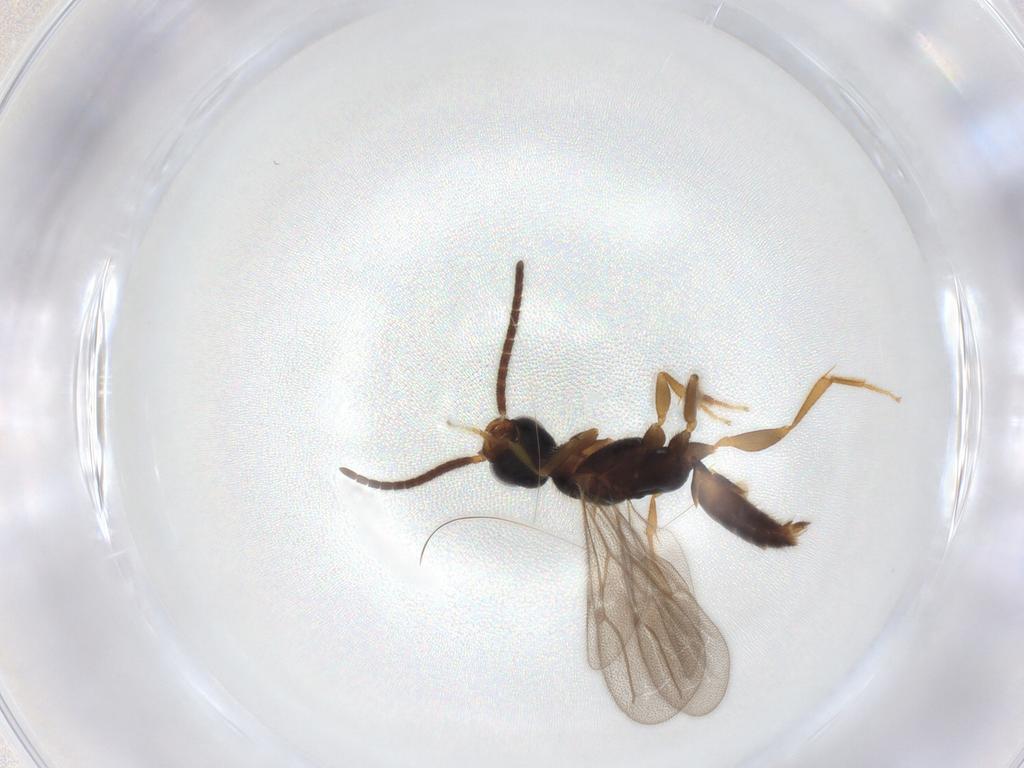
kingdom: Animalia
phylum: Arthropoda
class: Insecta
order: Hymenoptera
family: Bethylidae
